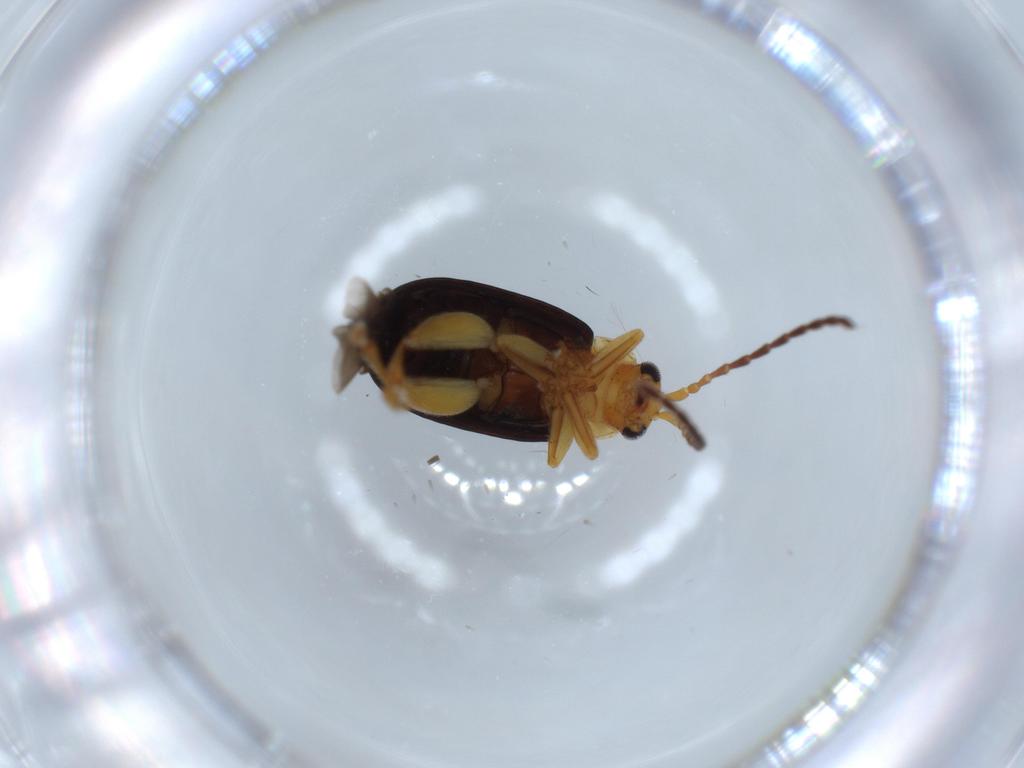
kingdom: Animalia
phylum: Arthropoda
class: Insecta
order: Coleoptera
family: Chrysomelidae
